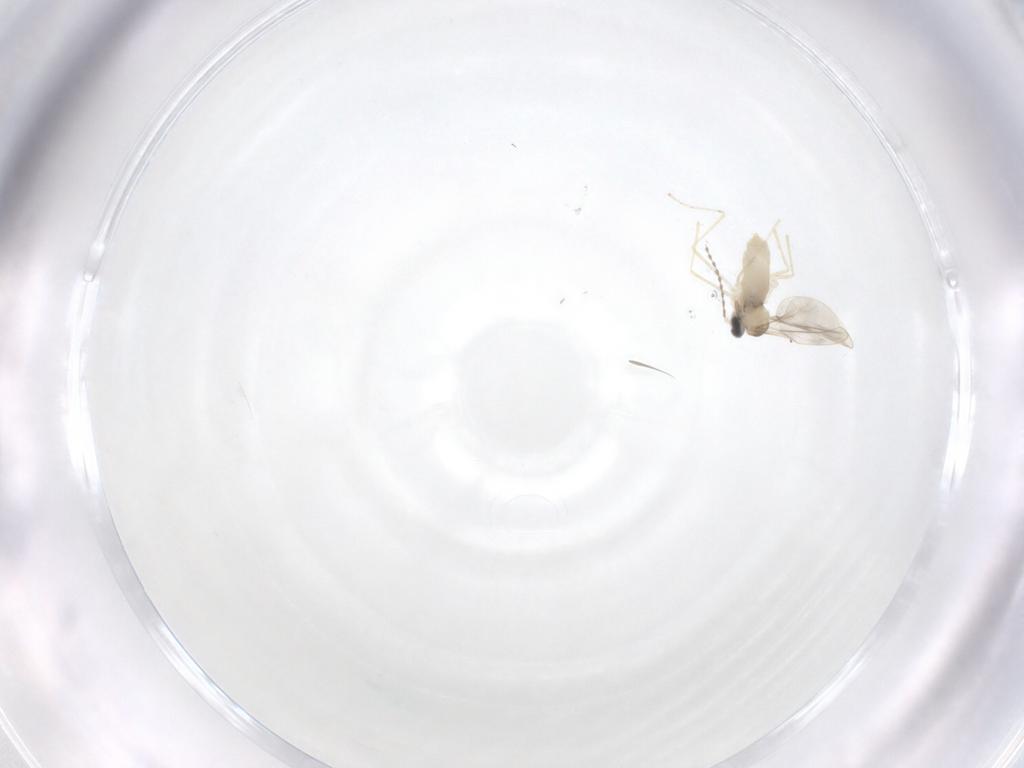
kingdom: Animalia
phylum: Arthropoda
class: Insecta
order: Diptera
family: Cecidomyiidae
